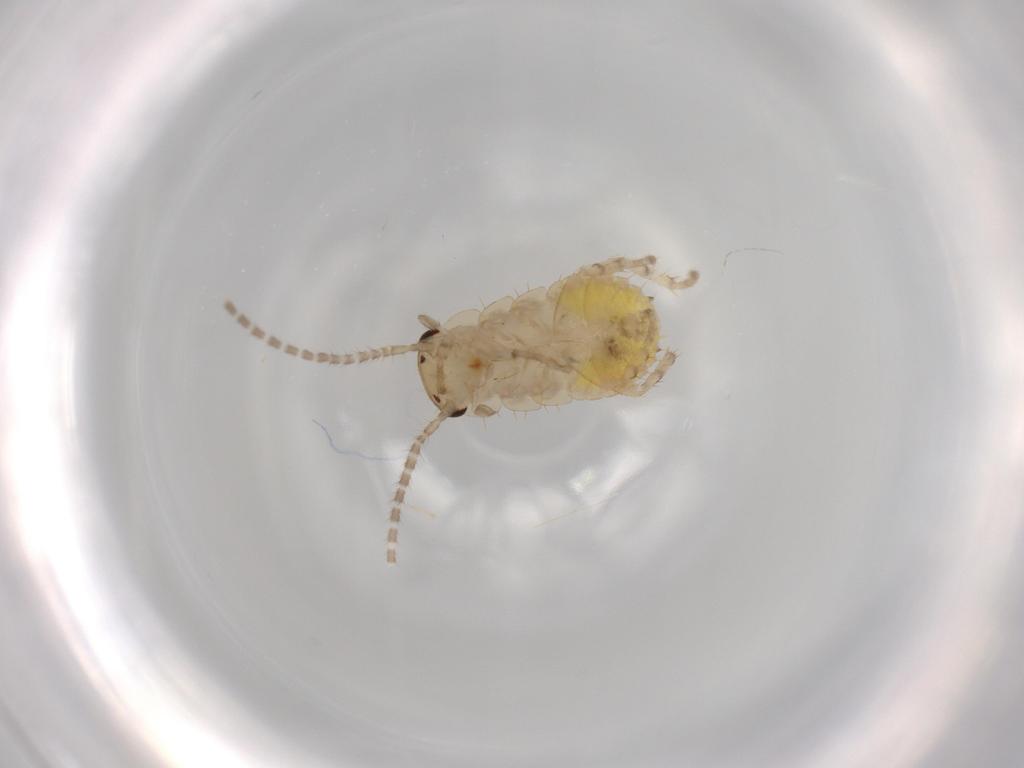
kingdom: Animalia
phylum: Arthropoda
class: Insecta
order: Blattodea
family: Ectobiidae
